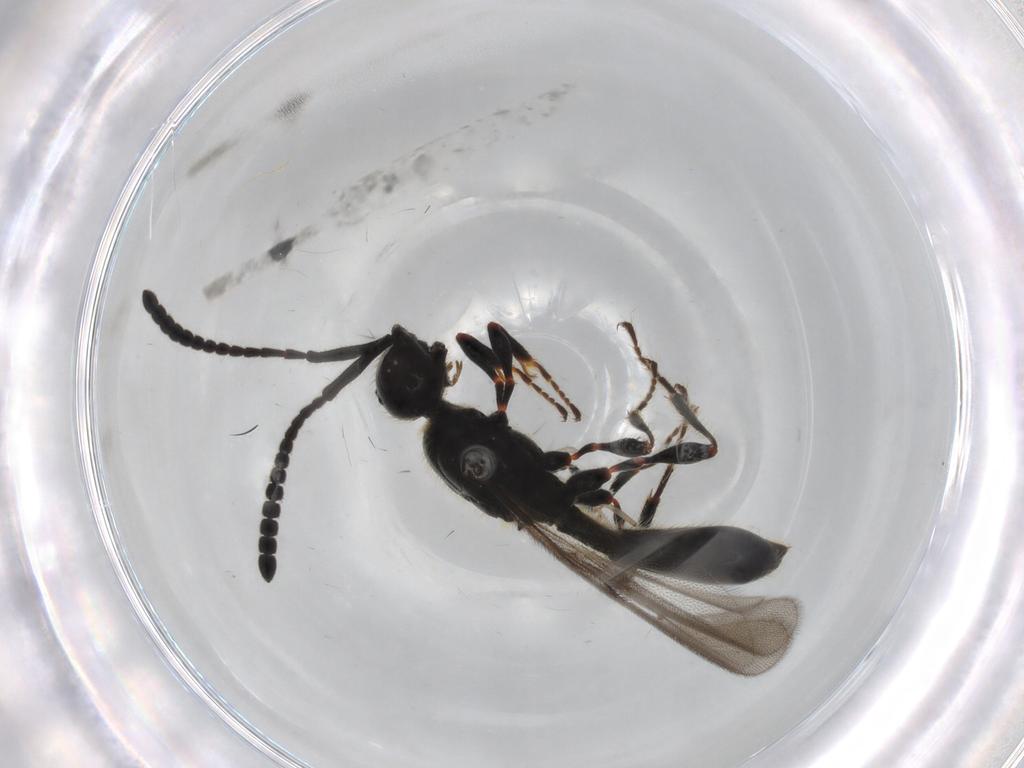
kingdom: Animalia
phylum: Arthropoda
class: Insecta
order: Hymenoptera
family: Diapriidae
